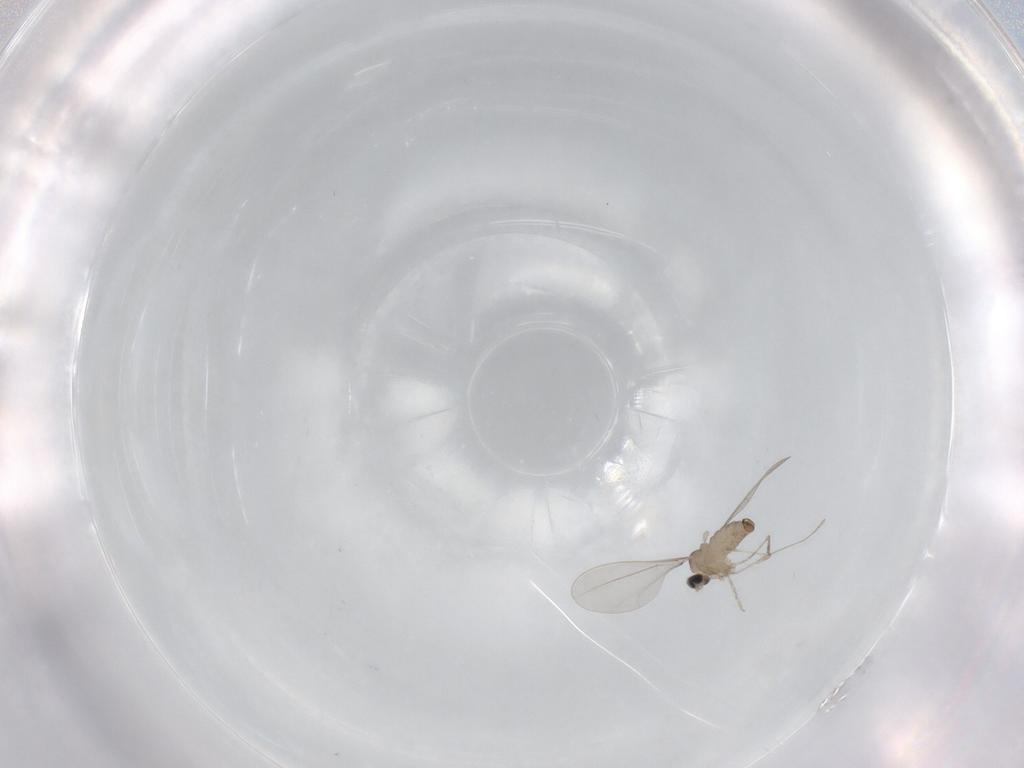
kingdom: Animalia
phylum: Arthropoda
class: Insecta
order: Diptera
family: Cecidomyiidae
